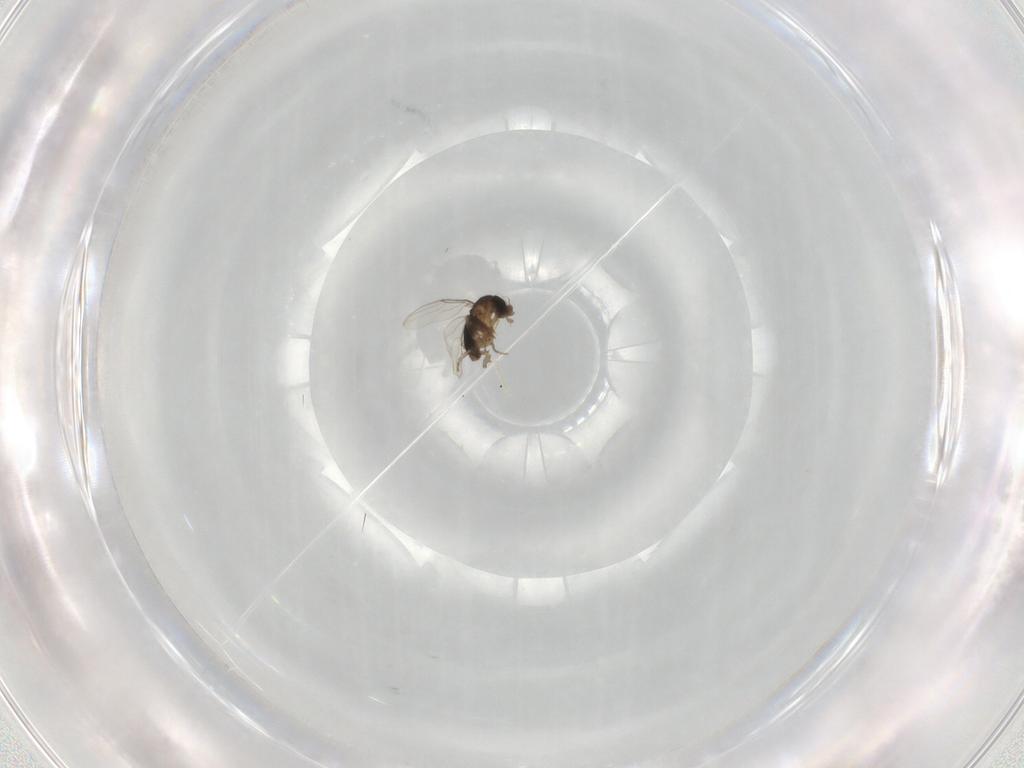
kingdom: Animalia
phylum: Arthropoda
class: Insecta
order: Diptera
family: Phoridae
